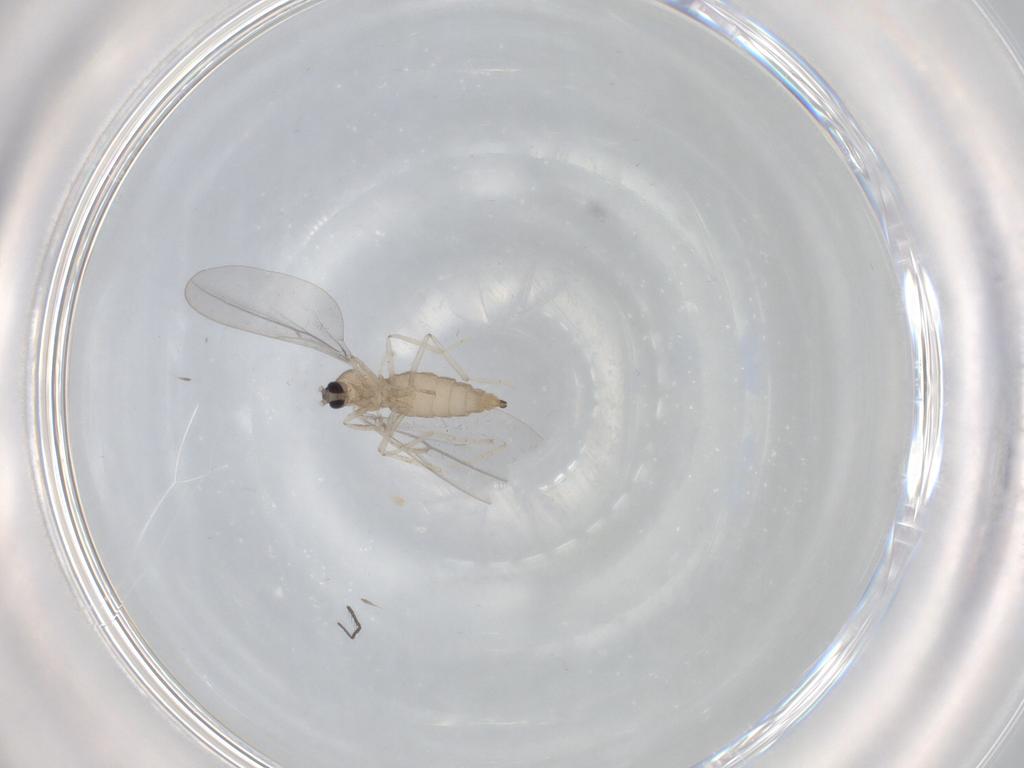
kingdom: Animalia
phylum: Arthropoda
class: Insecta
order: Diptera
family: Cecidomyiidae
